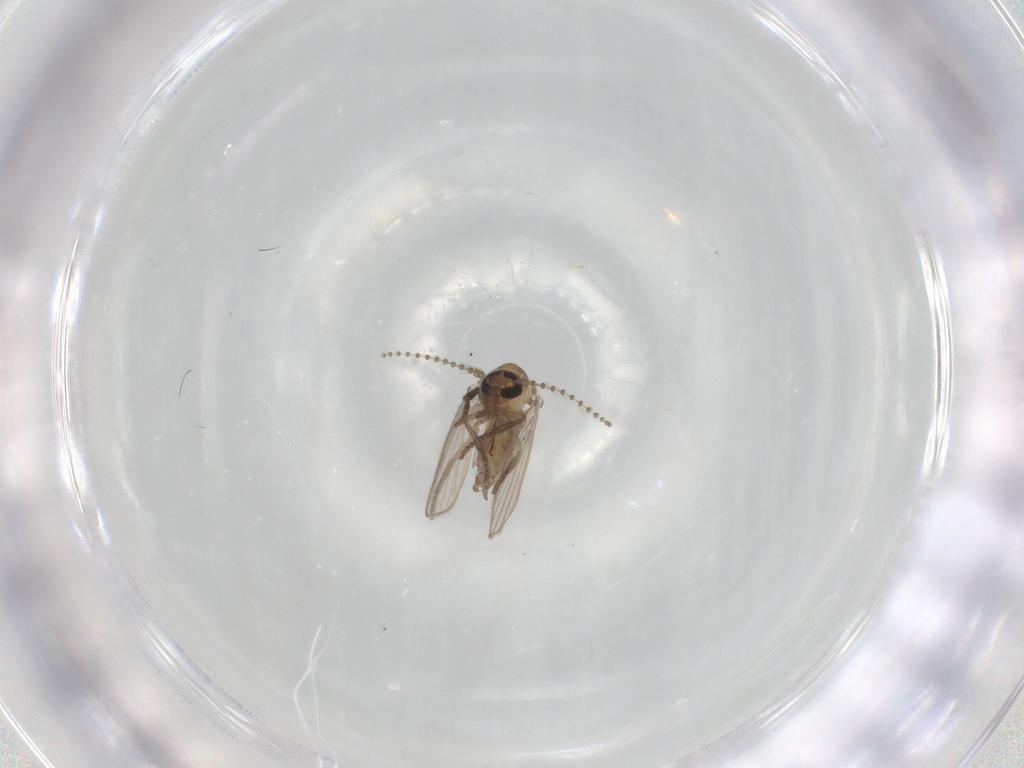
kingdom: Animalia
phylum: Arthropoda
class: Insecta
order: Diptera
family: Psychodidae
